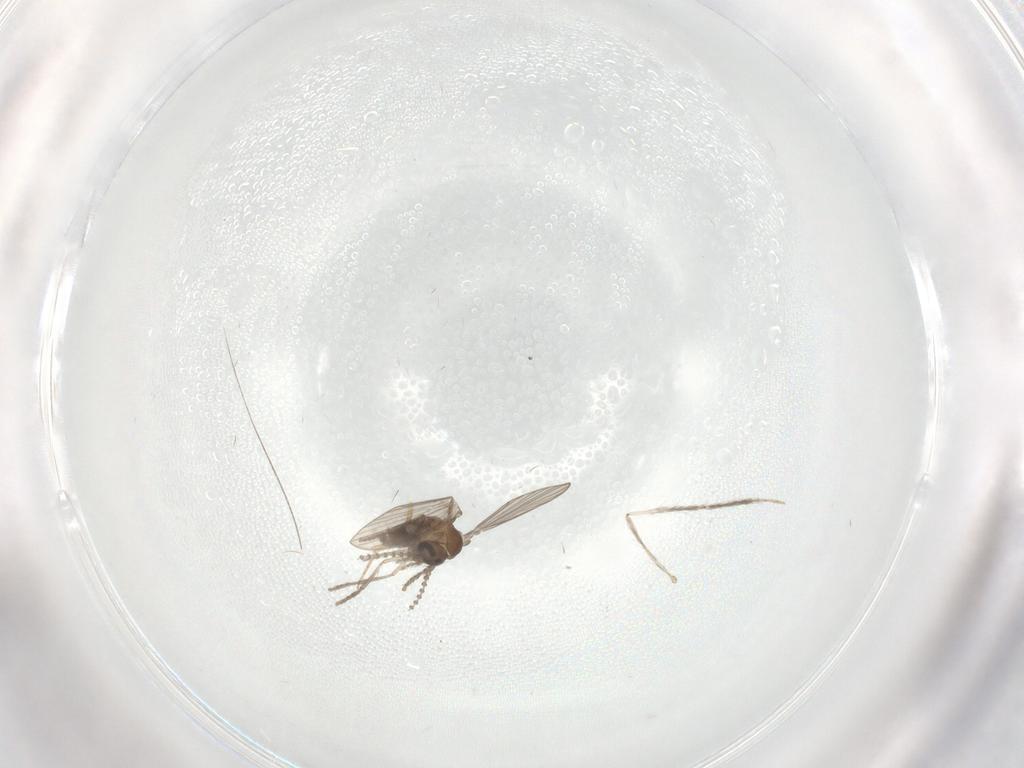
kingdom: Animalia
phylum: Arthropoda
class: Insecta
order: Diptera
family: Cecidomyiidae
